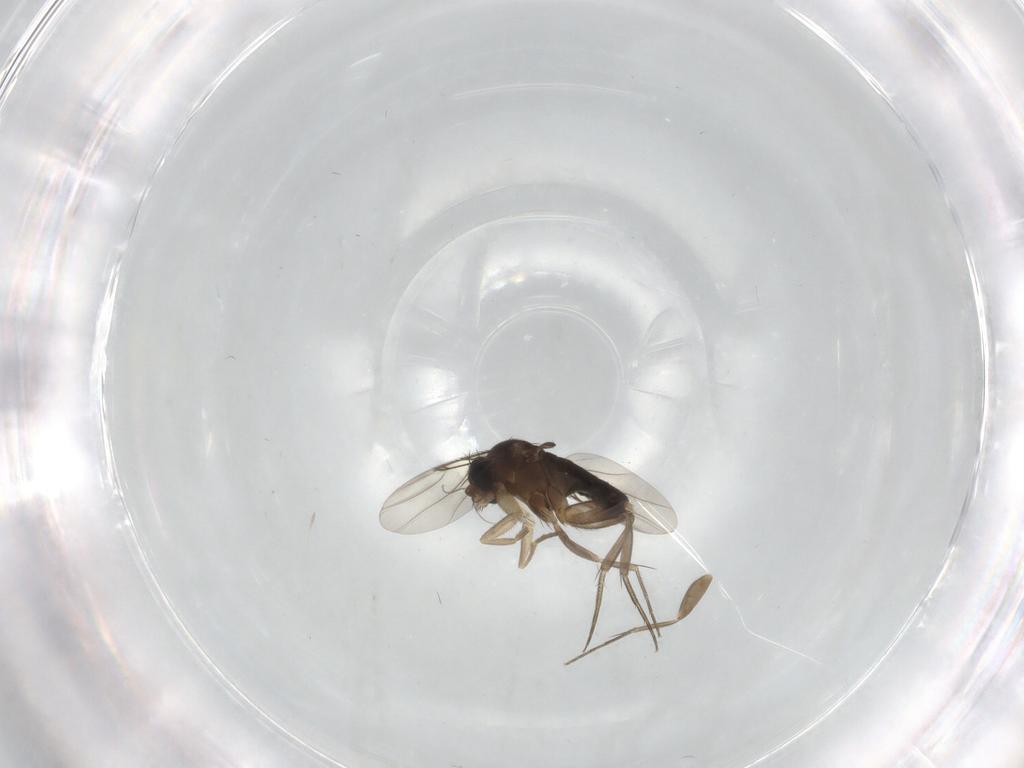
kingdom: Animalia
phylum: Arthropoda
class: Insecta
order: Diptera
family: Phoridae
